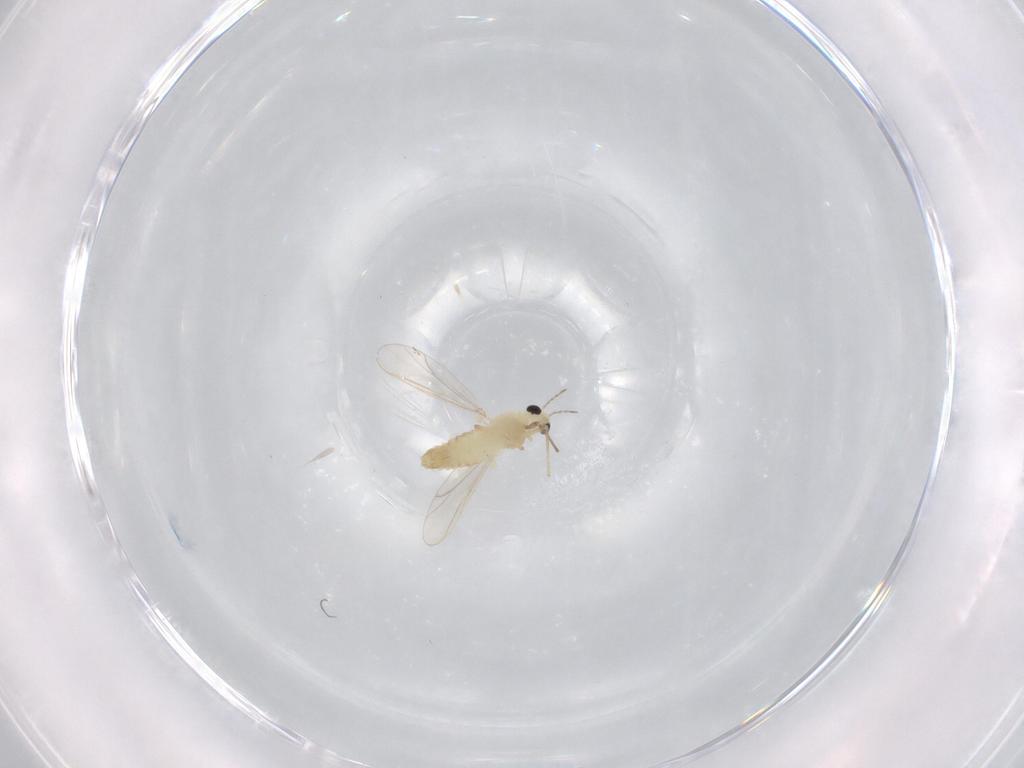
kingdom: Animalia
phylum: Arthropoda
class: Insecta
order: Diptera
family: Chironomidae
